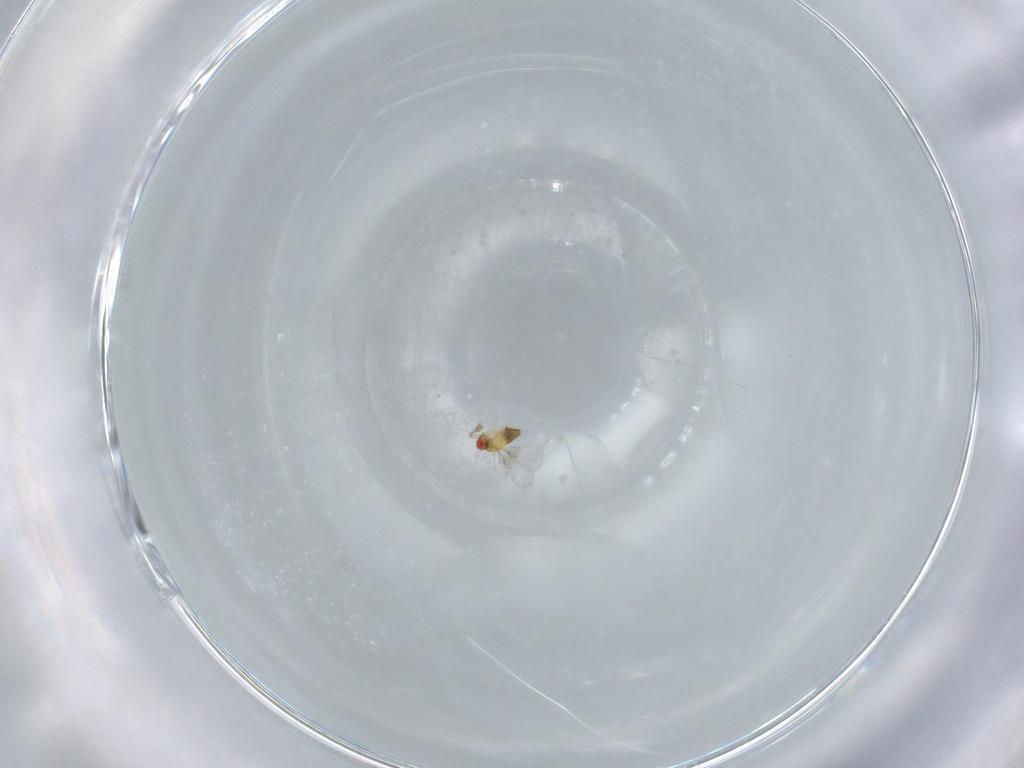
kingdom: Animalia
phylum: Arthropoda
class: Insecta
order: Hymenoptera
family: Trichogrammatidae
